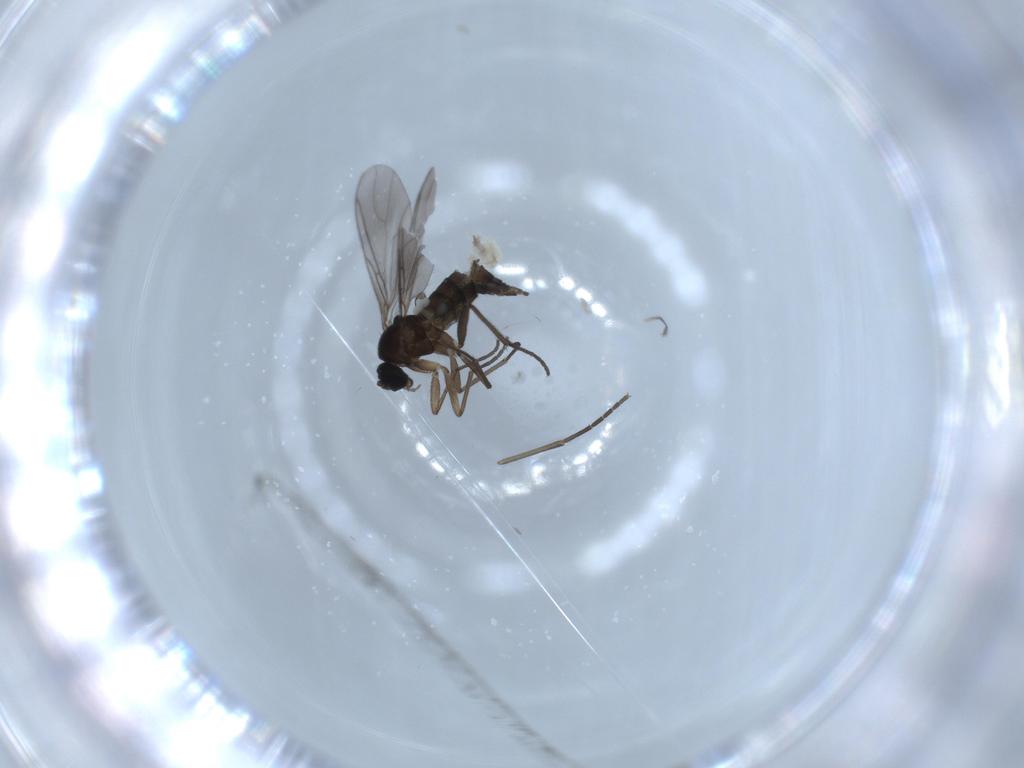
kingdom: Animalia
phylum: Arthropoda
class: Insecta
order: Diptera
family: Sciaridae
